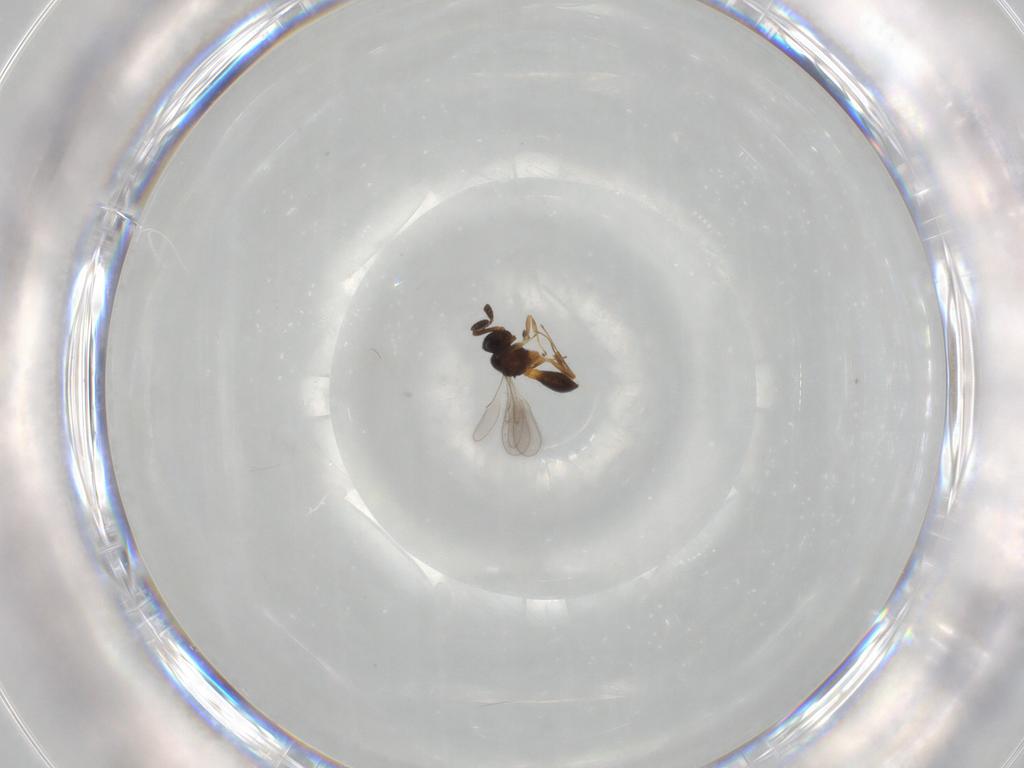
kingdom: Animalia
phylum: Arthropoda
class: Insecta
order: Hymenoptera
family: Scelionidae
